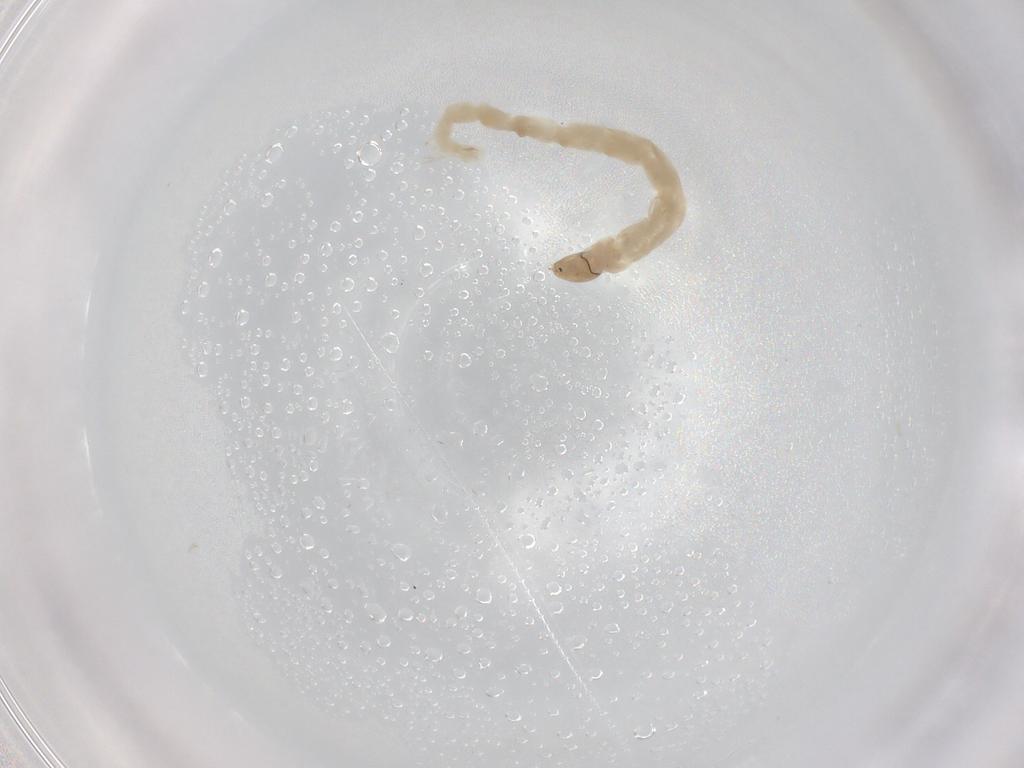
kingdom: Animalia
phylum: Arthropoda
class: Insecta
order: Diptera
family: Chironomidae
